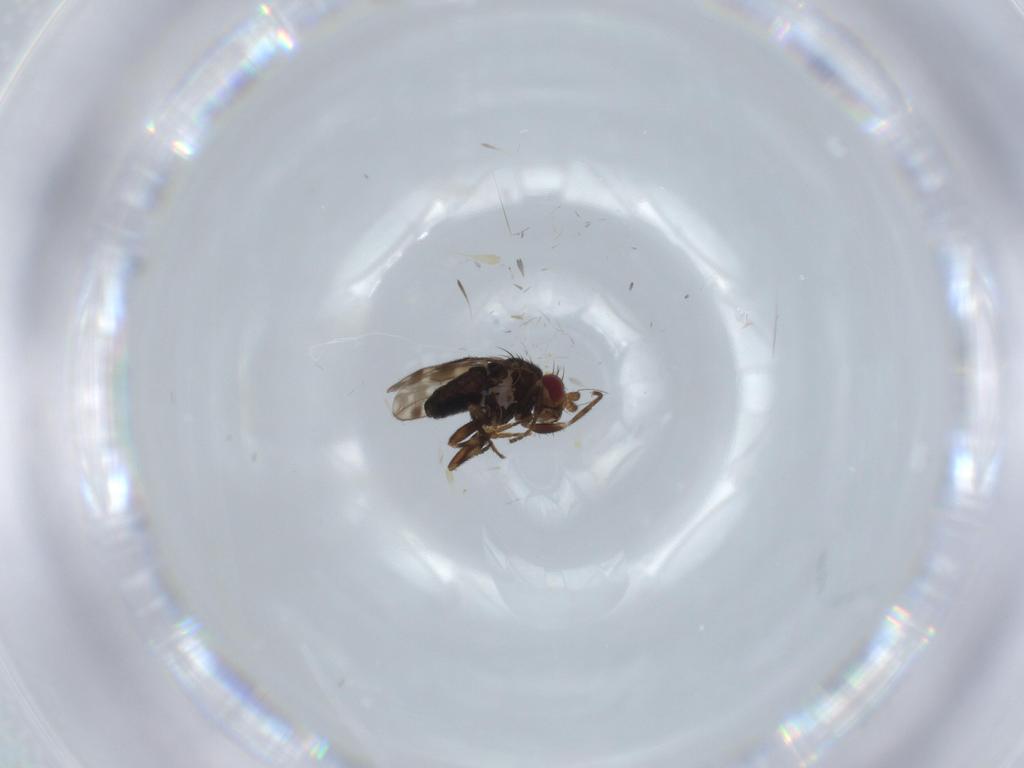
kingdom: Animalia
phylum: Arthropoda
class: Insecta
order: Diptera
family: Sphaeroceridae
